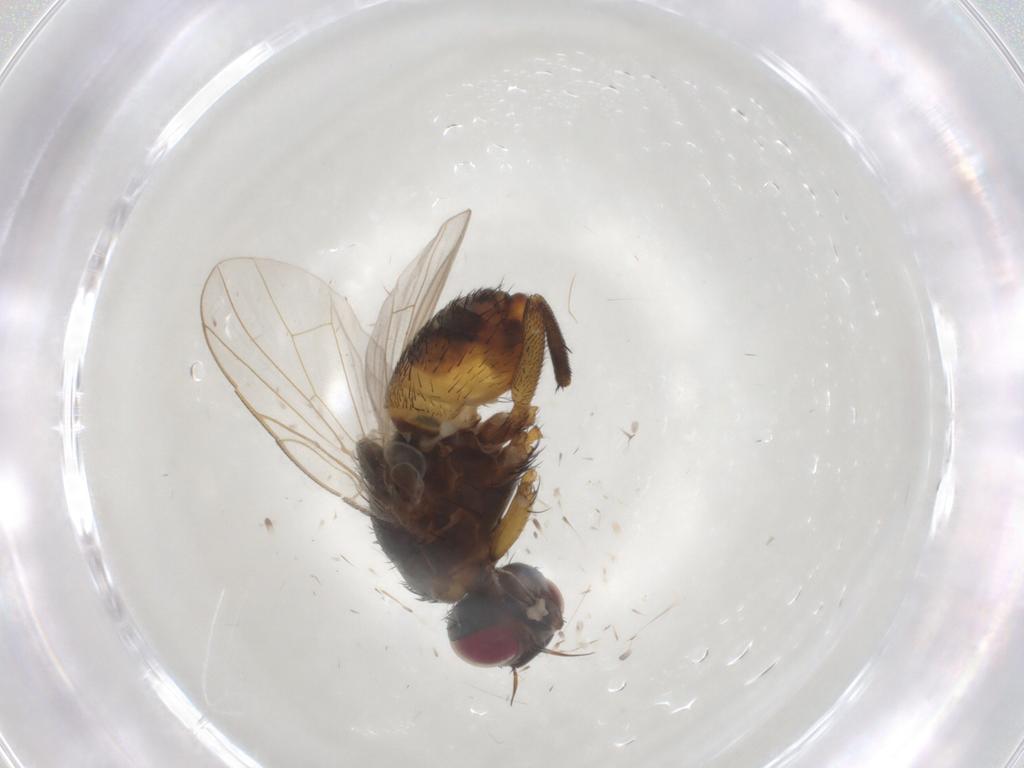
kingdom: Animalia
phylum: Arthropoda
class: Insecta
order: Diptera
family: Muscidae
